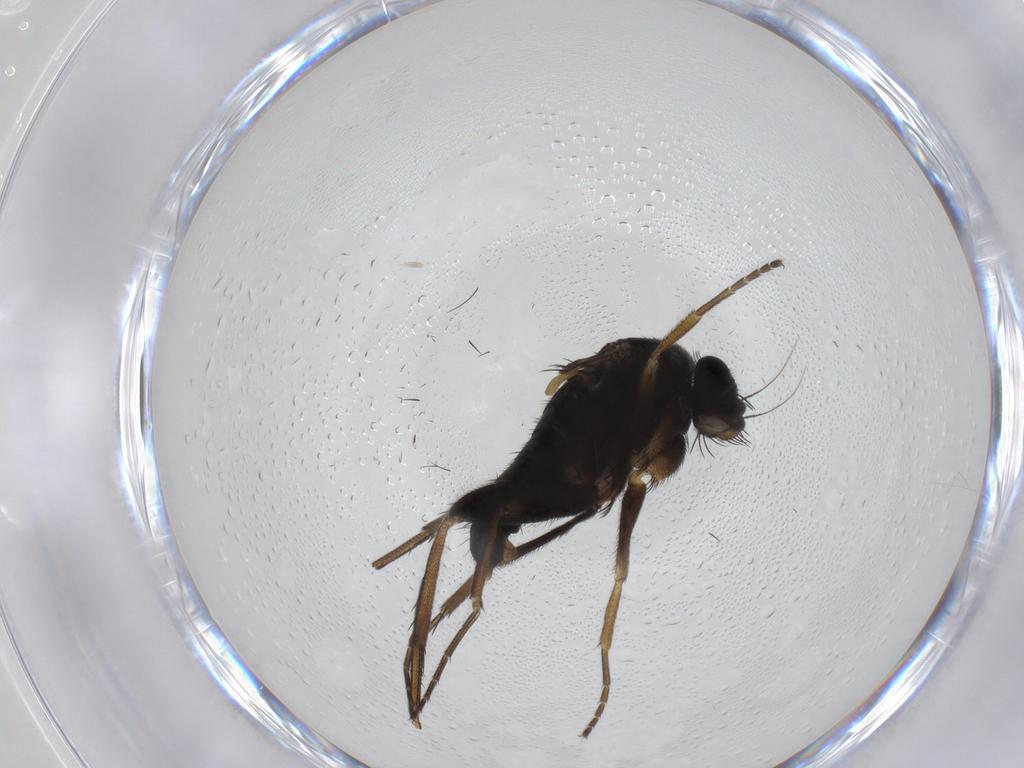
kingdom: Animalia
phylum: Arthropoda
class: Insecta
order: Diptera
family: Phoridae
